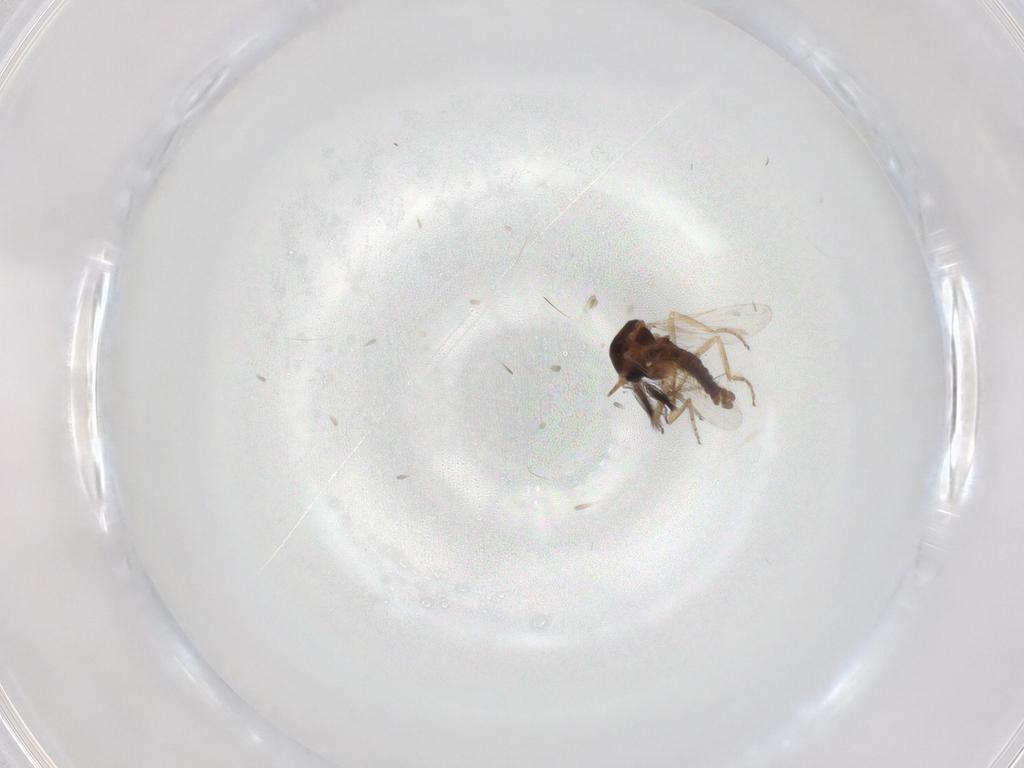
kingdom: Animalia
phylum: Arthropoda
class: Insecta
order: Diptera
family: Ceratopogonidae
